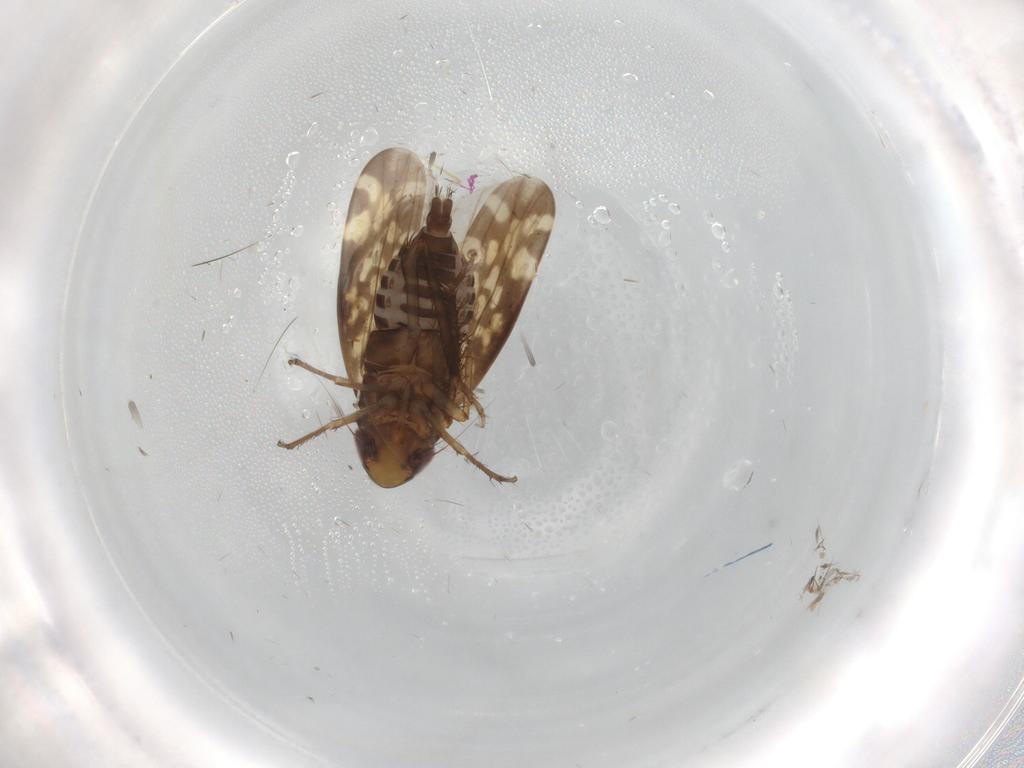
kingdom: Animalia
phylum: Arthropoda
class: Insecta
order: Hemiptera
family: Cicadellidae
